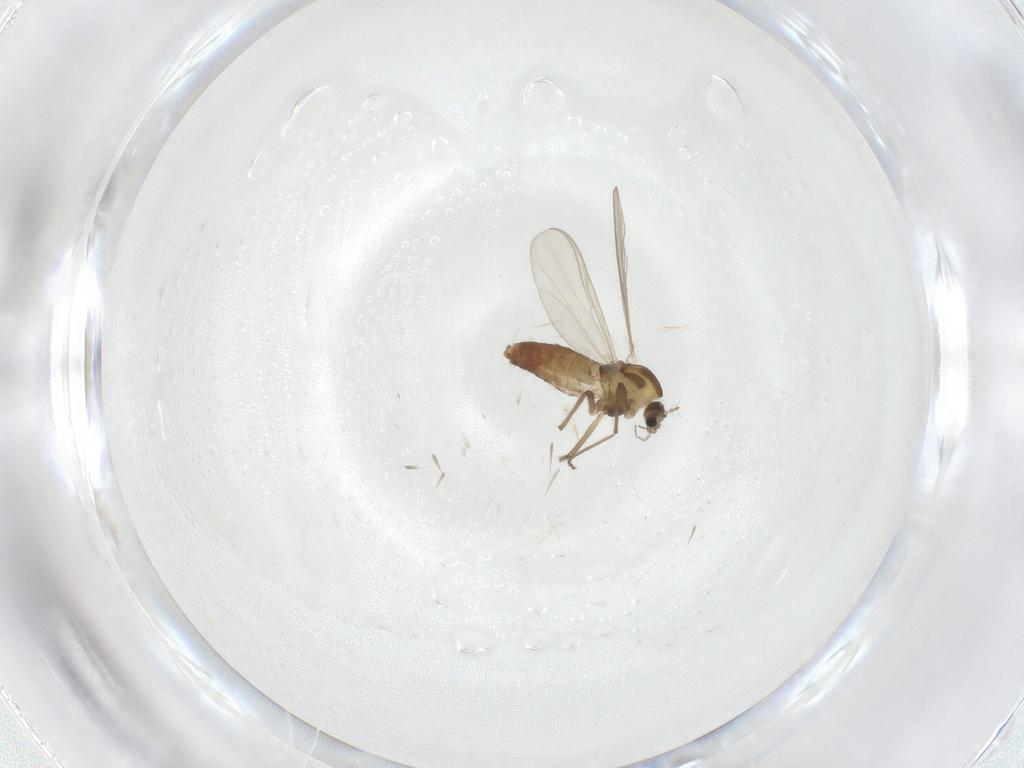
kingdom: Animalia
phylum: Arthropoda
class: Insecta
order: Diptera
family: Chironomidae
